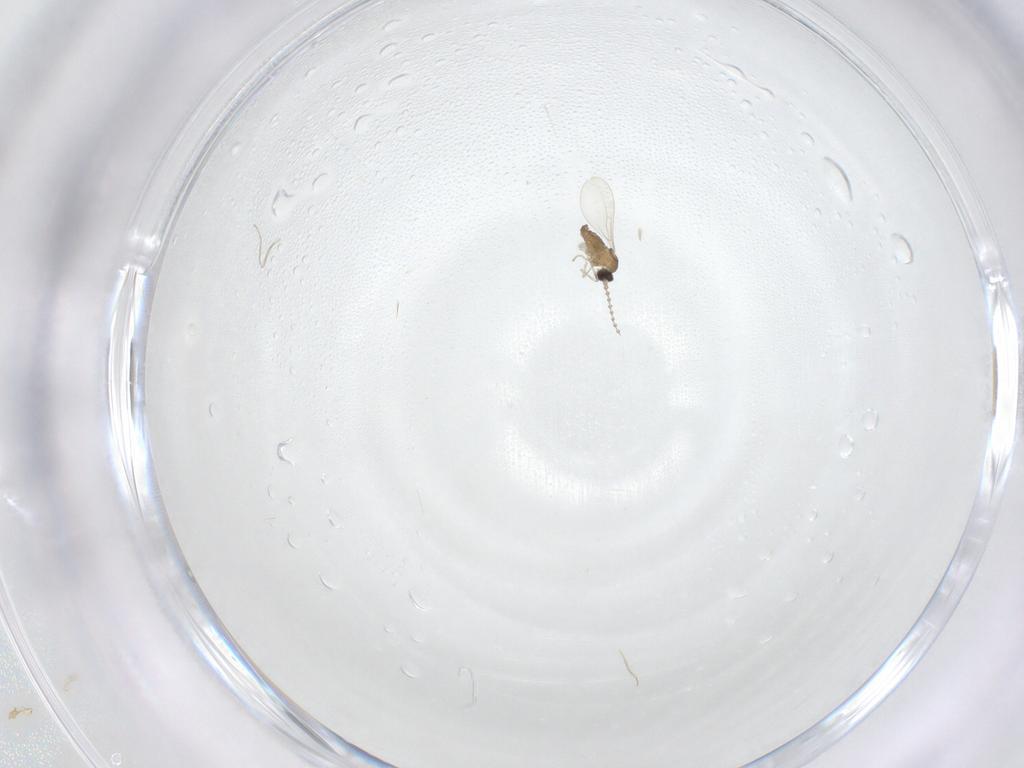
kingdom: Animalia
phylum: Arthropoda
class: Insecta
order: Diptera
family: Cecidomyiidae
